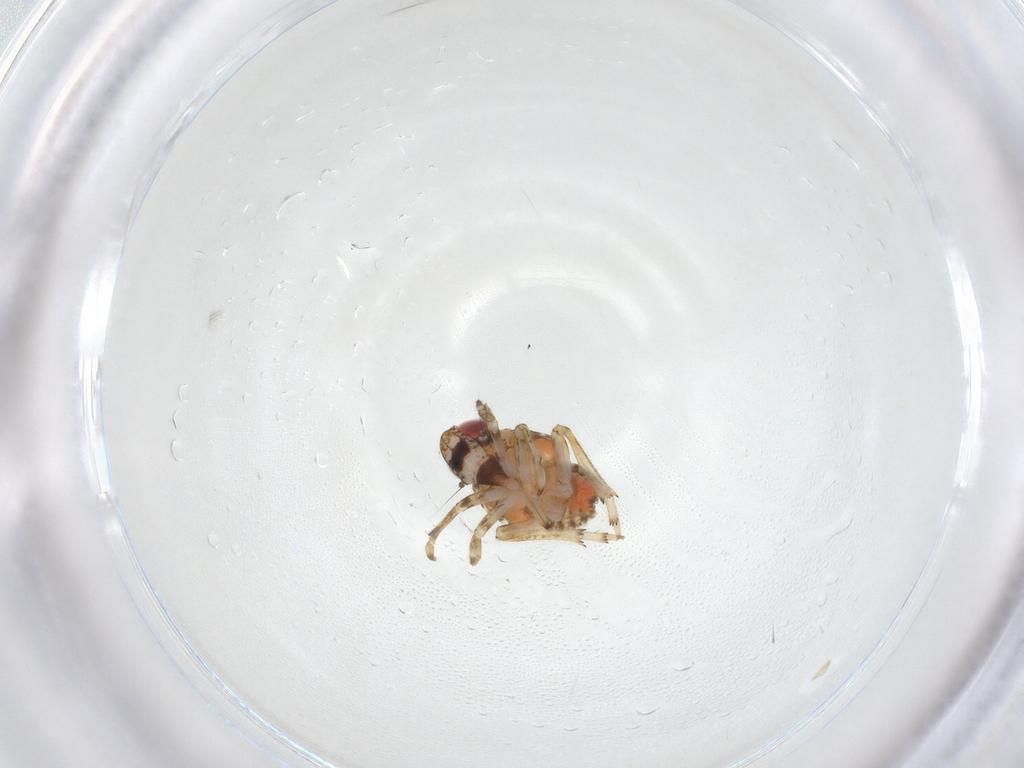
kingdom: Animalia
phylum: Arthropoda
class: Insecta
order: Hemiptera
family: Issidae
